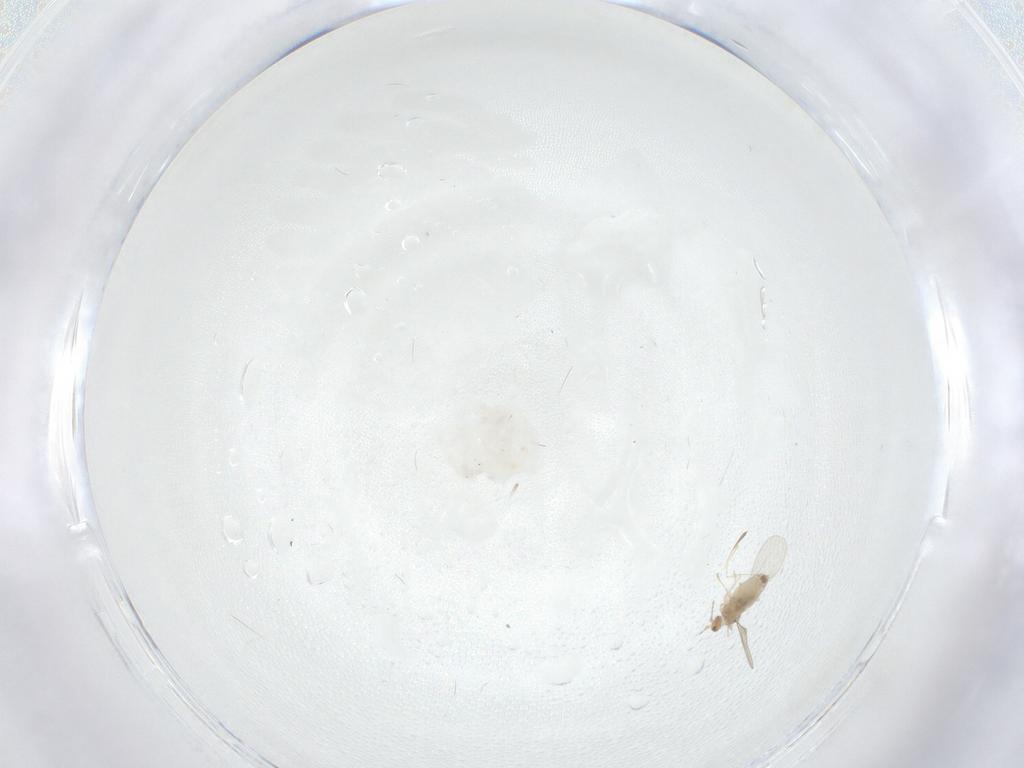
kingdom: Animalia
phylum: Arthropoda
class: Insecta
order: Diptera
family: Cecidomyiidae
